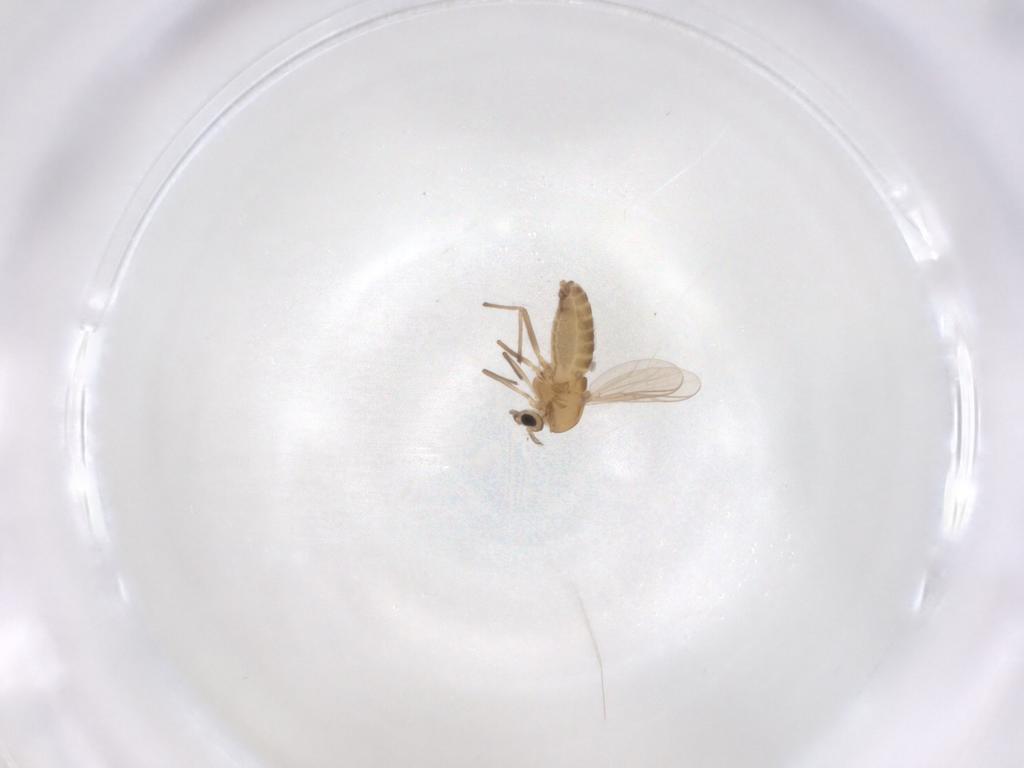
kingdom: Animalia
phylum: Arthropoda
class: Insecta
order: Diptera
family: Chironomidae
